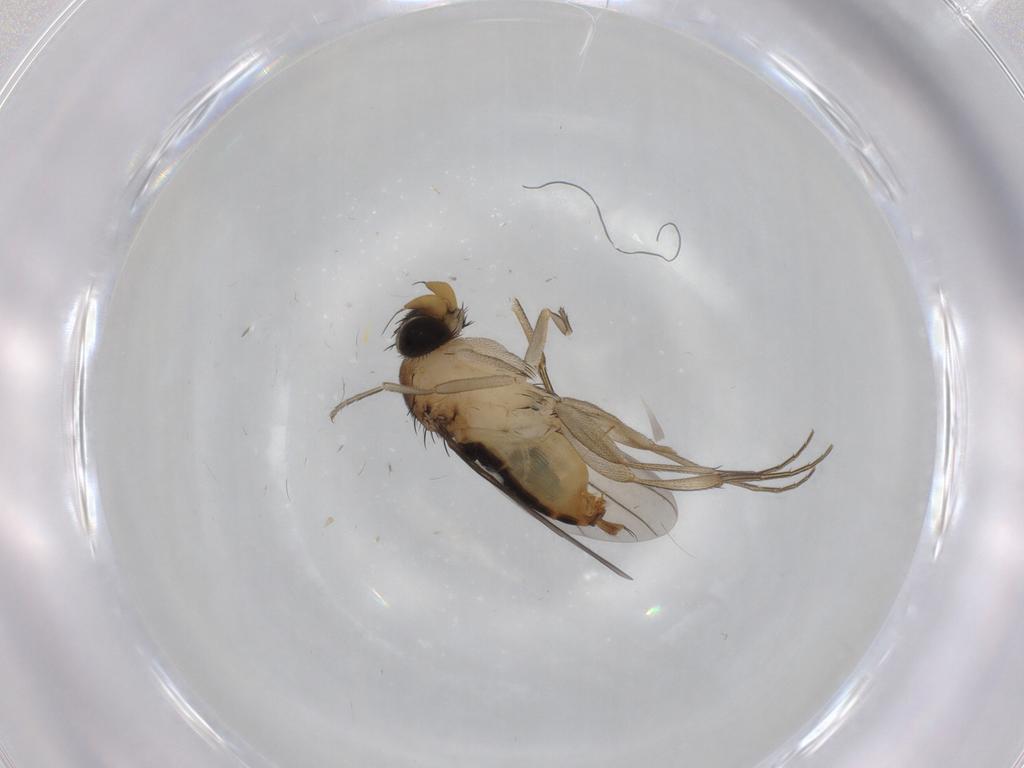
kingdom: Animalia
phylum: Arthropoda
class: Insecta
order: Diptera
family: Phoridae
